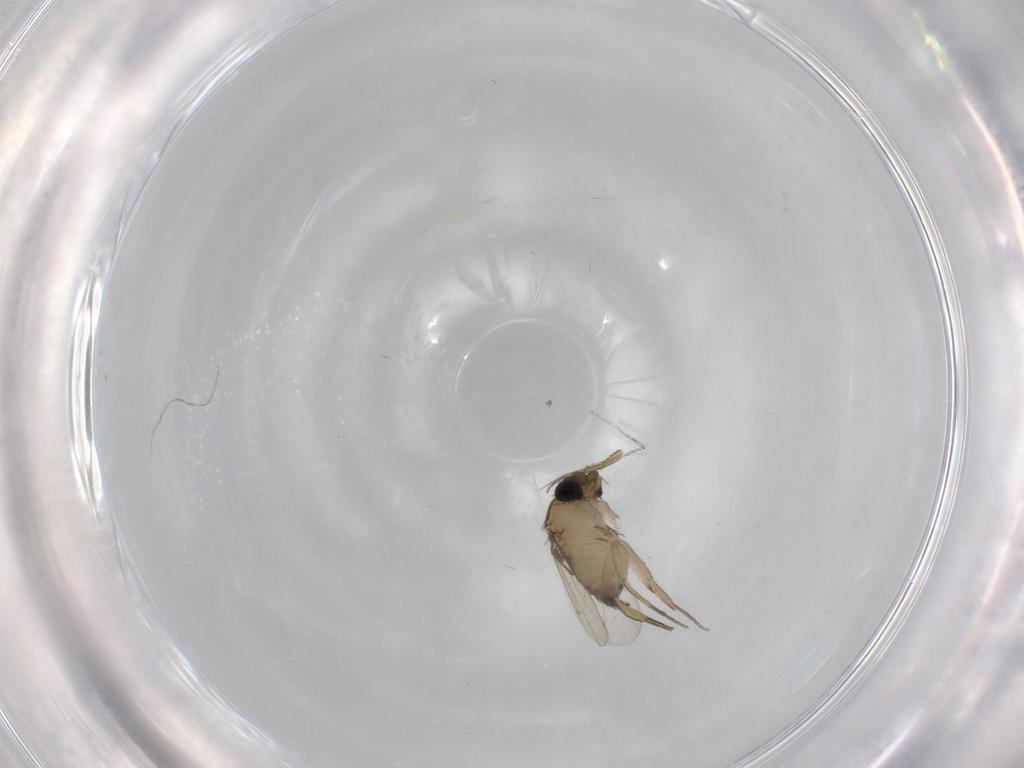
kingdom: Animalia
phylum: Arthropoda
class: Insecta
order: Diptera
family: Phoridae
